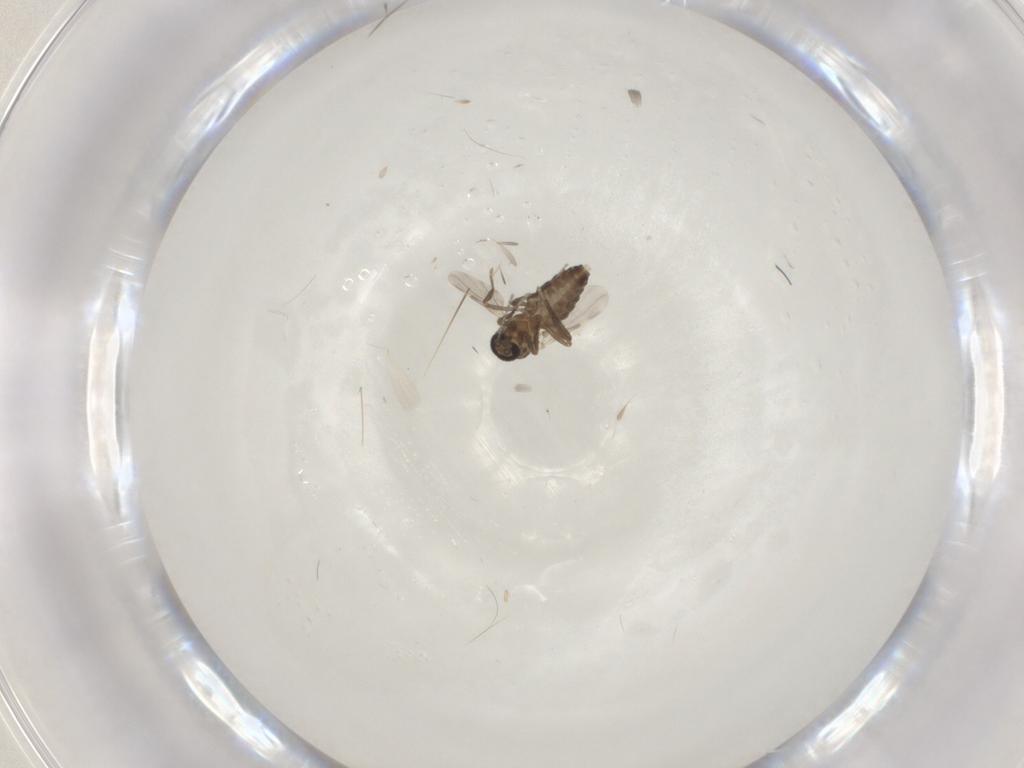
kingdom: Animalia
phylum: Arthropoda
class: Insecta
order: Diptera
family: Ceratopogonidae
